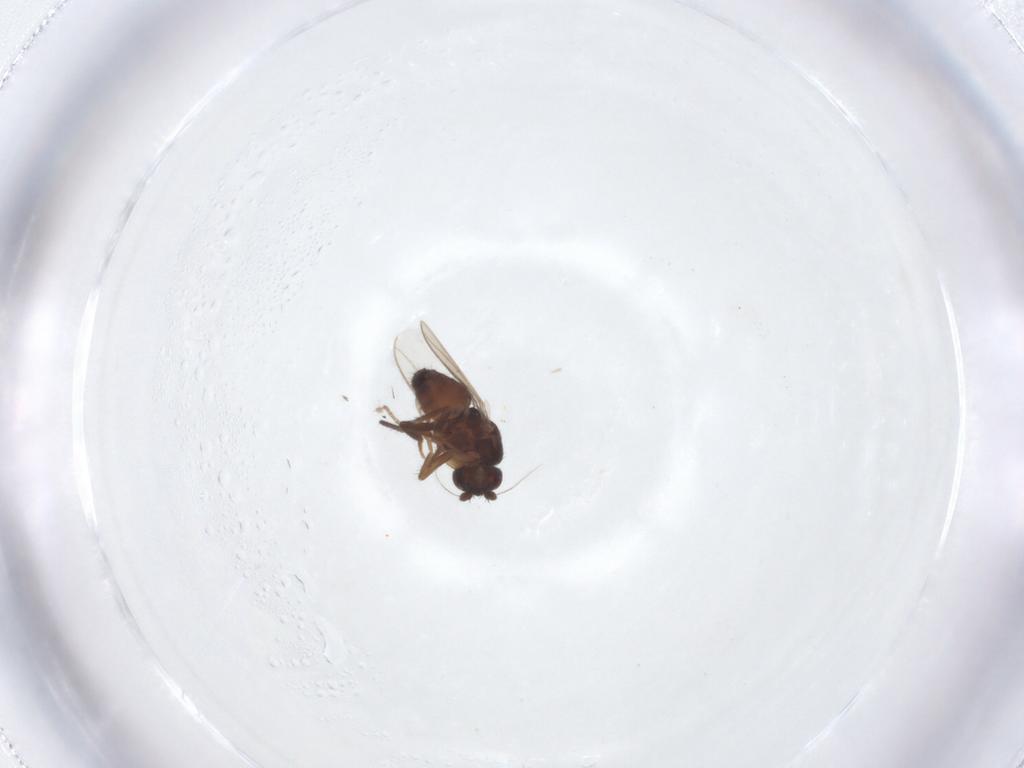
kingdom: Animalia
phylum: Arthropoda
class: Insecta
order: Diptera
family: Sphaeroceridae
